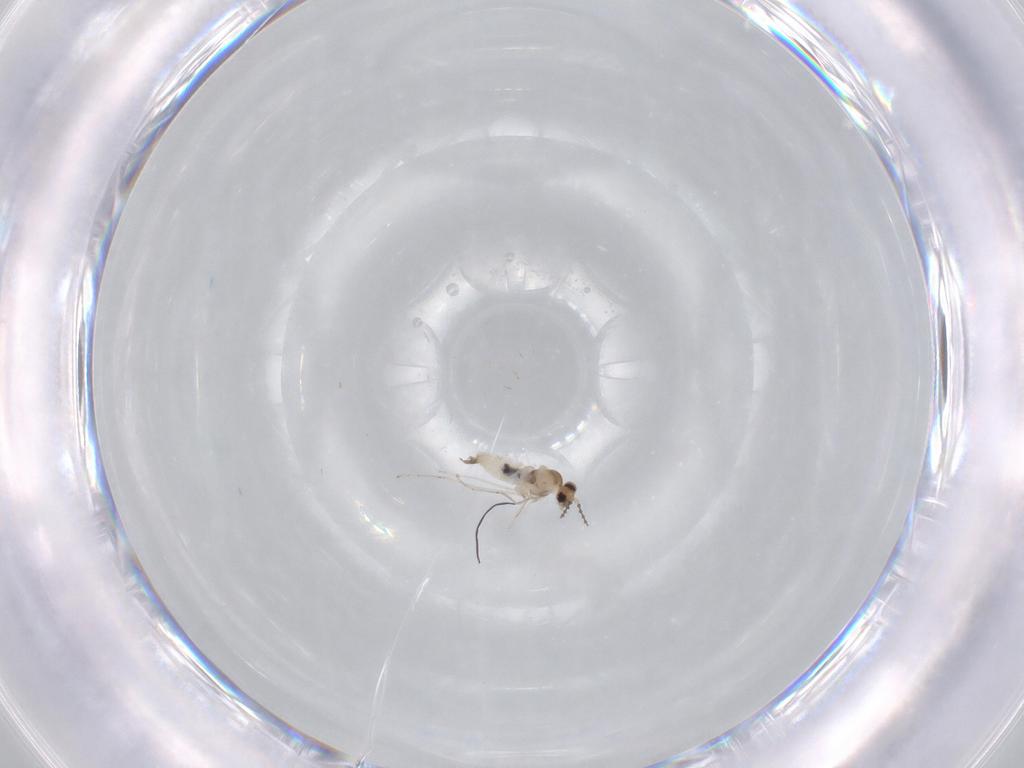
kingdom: Animalia
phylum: Arthropoda
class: Insecta
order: Diptera
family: Cecidomyiidae
